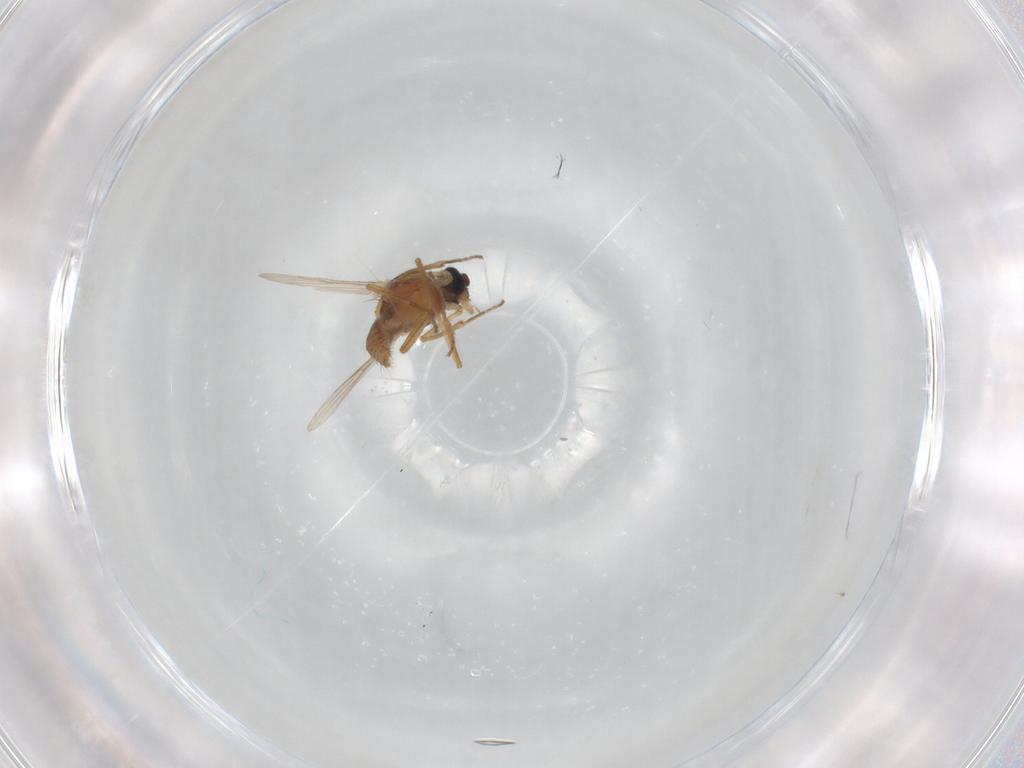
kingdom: Animalia
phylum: Arthropoda
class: Insecta
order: Diptera
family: Ceratopogonidae
